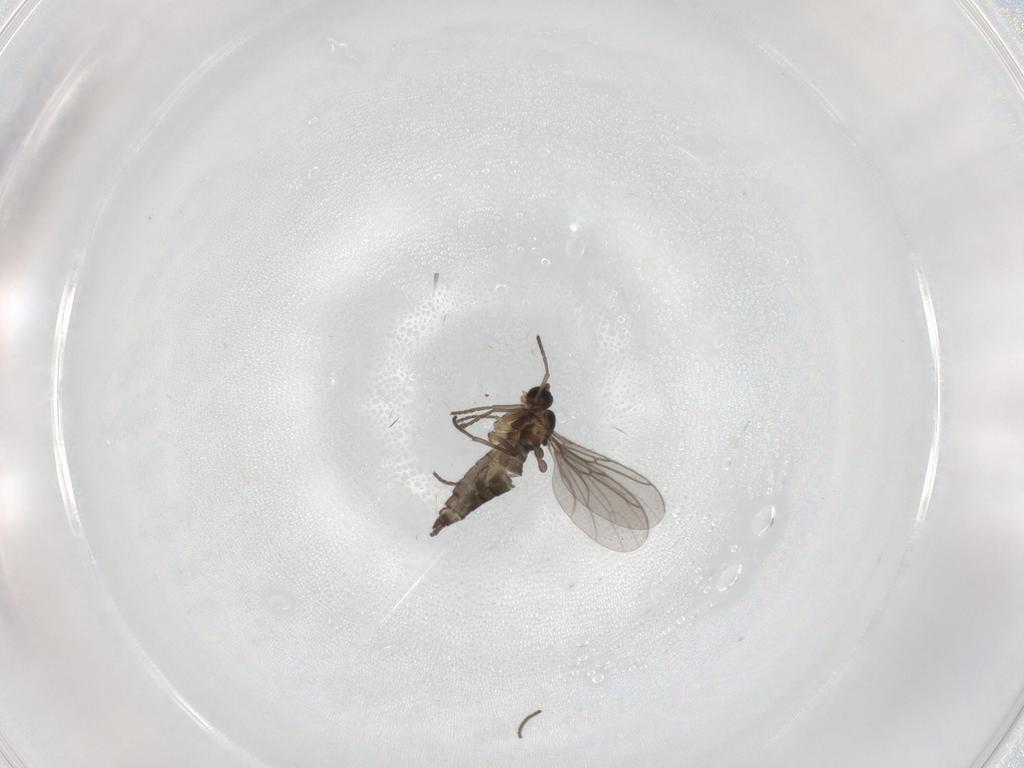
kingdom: Animalia
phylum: Arthropoda
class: Insecta
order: Diptera
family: Sciaridae
